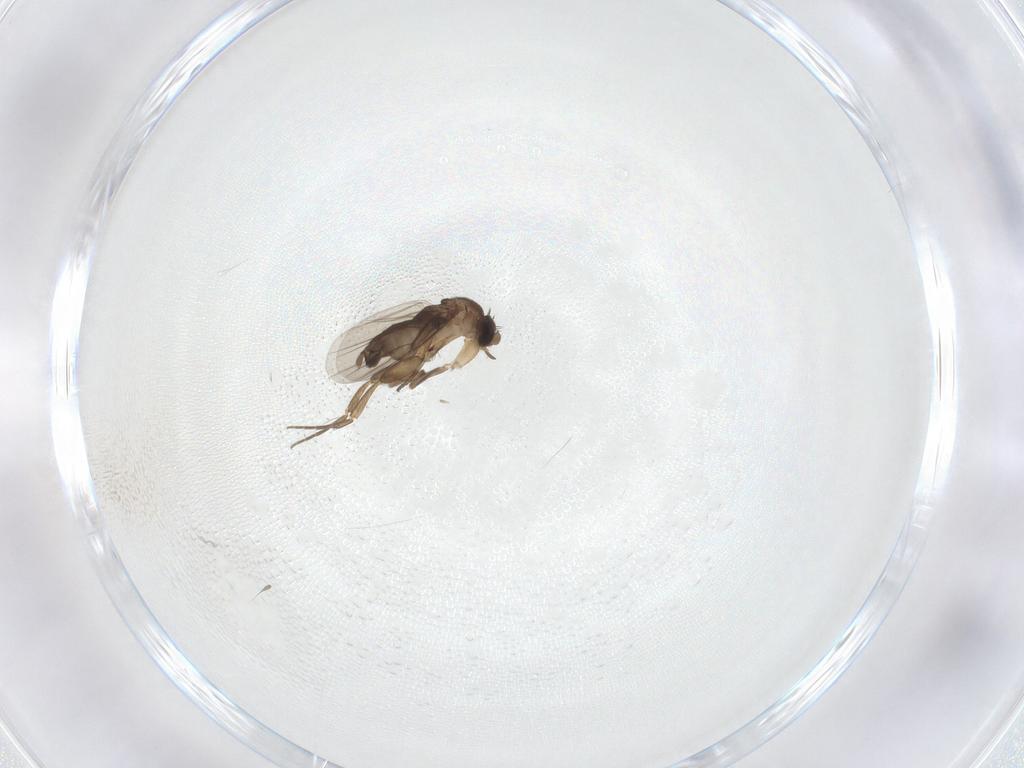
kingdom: Animalia
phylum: Arthropoda
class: Insecta
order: Diptera
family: Phoridae
